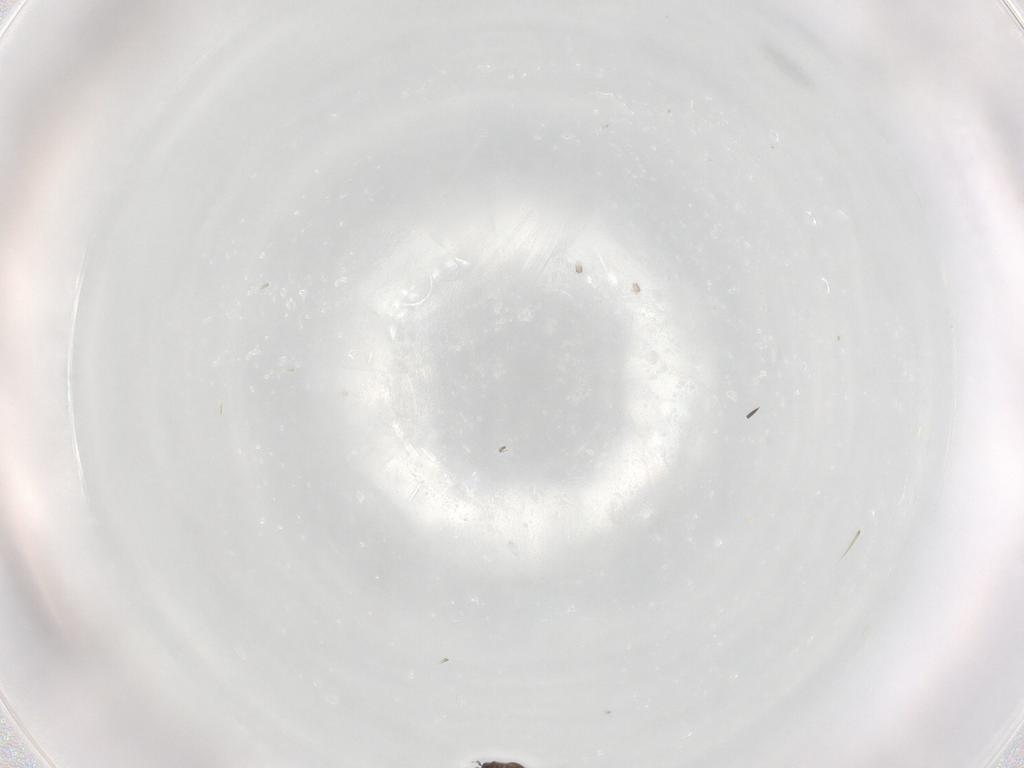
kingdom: Animalia
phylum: Arthropoda
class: Insecta
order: Hymenoptera
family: Mymaridae
